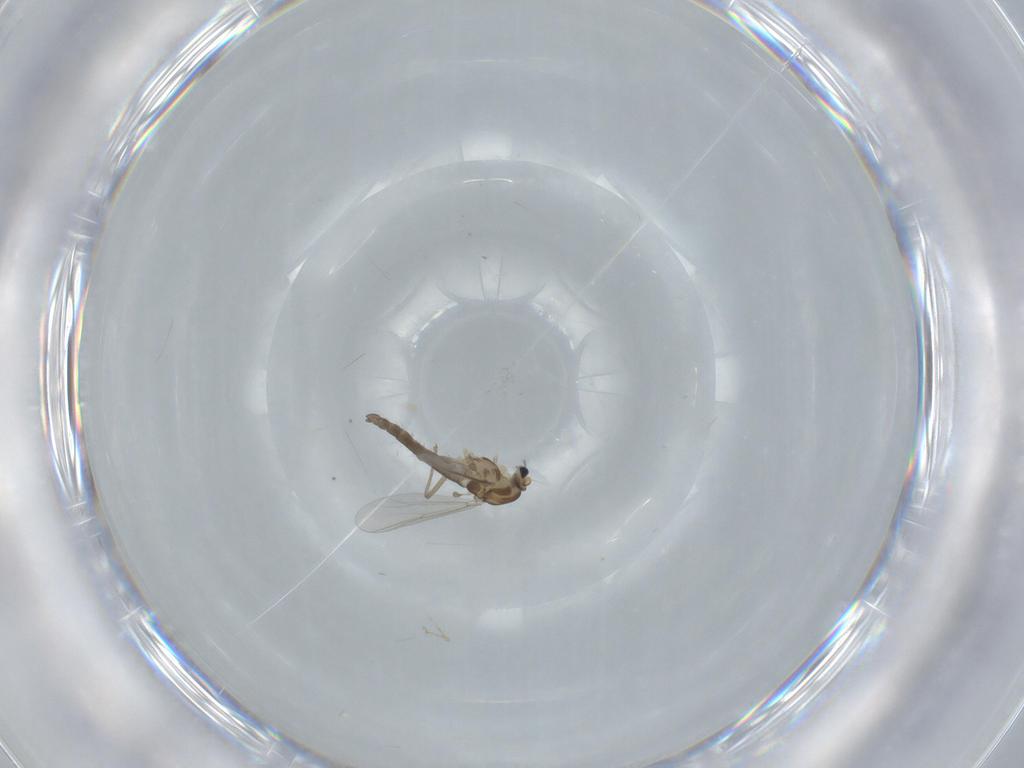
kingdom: Animalia
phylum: Arthropoda
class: Insecta
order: Diptera
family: Chironomidae
